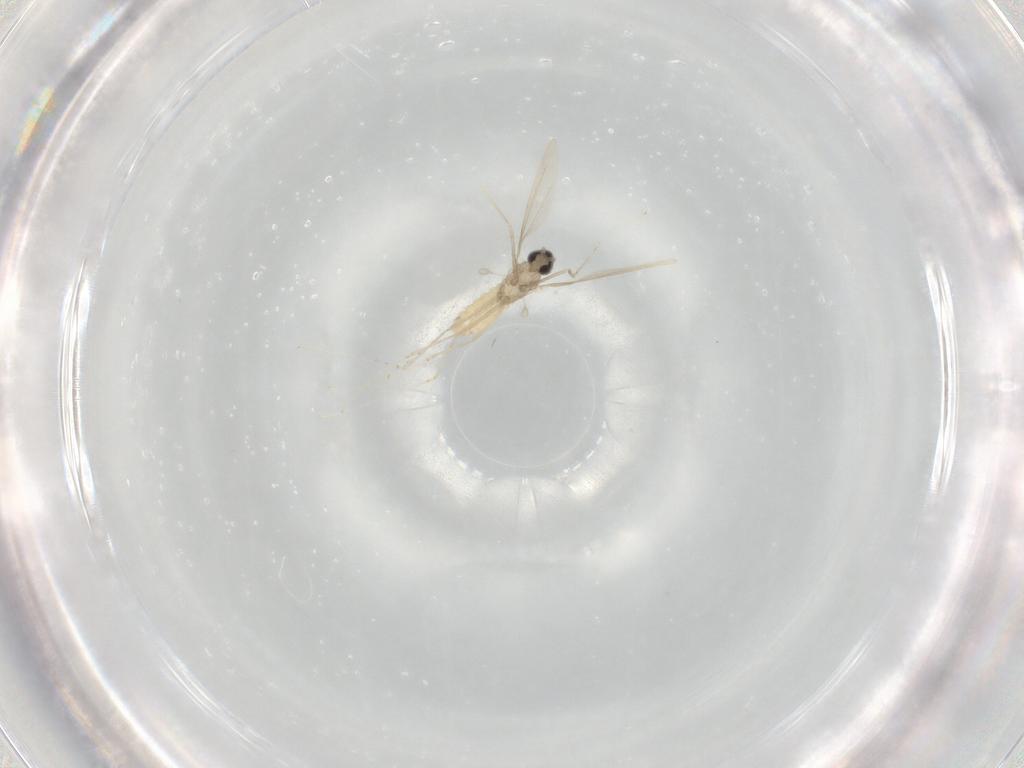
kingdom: Animalia
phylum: Arthropoda
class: Insecta
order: Diptera
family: Cecidomyiidae
